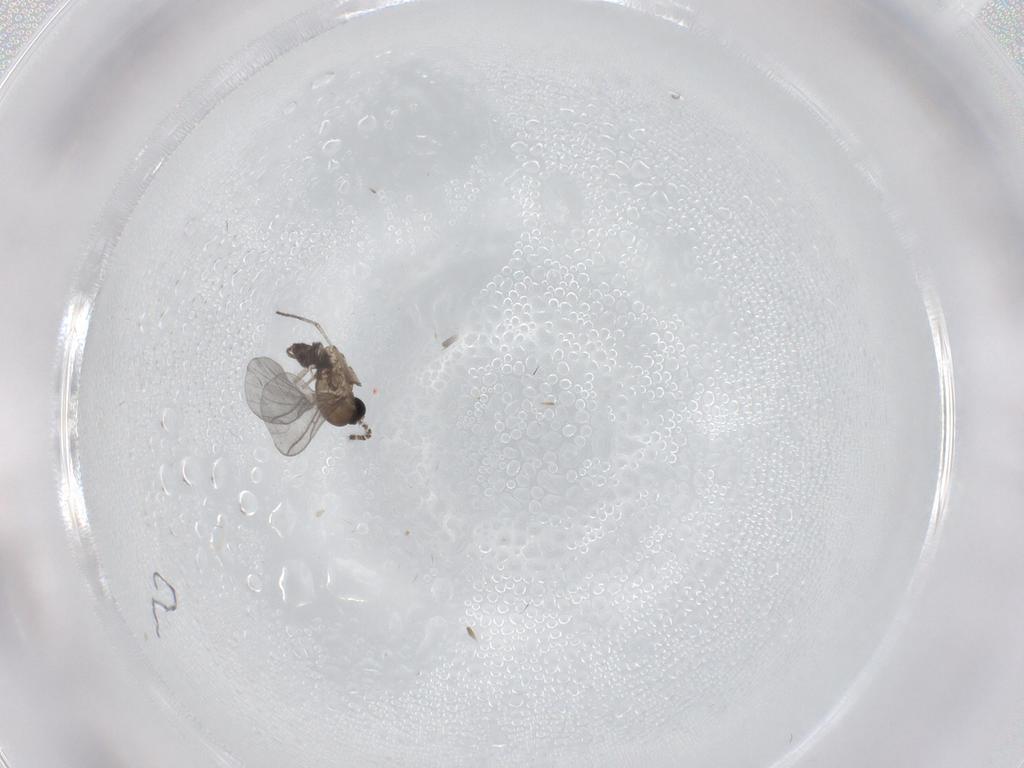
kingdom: Animalia
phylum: Arthropoda
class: Insecta
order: Diptera
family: Sciaridae
